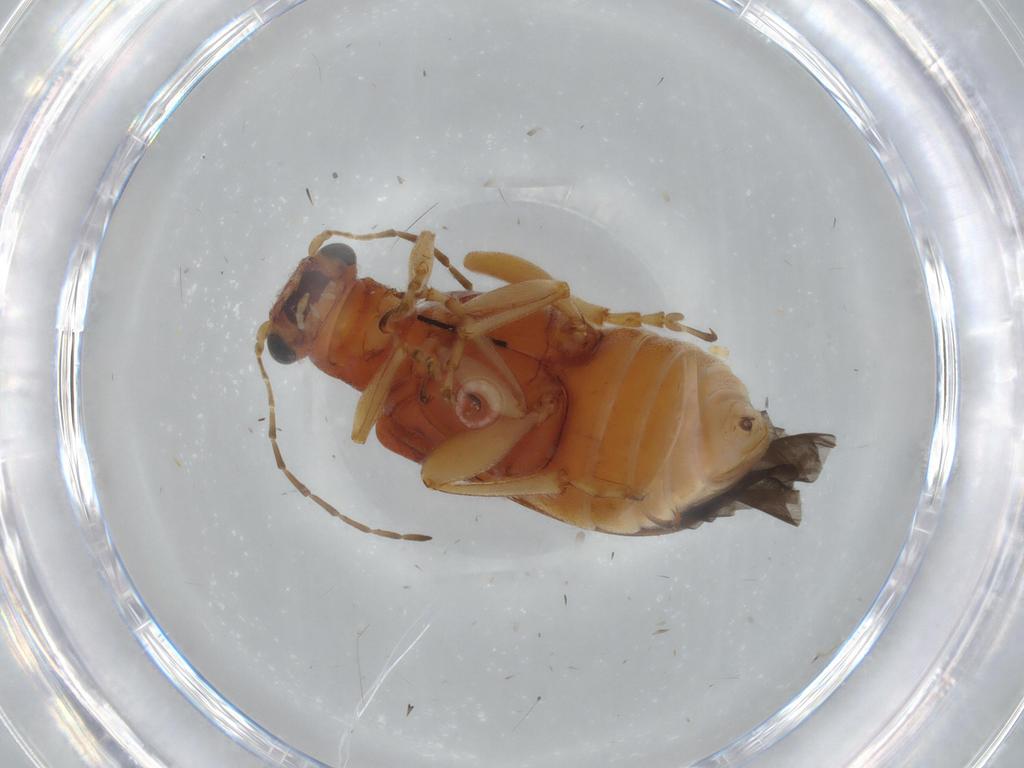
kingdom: Animalia
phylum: Arthropoda
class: Insecta
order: Coleoptera
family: Chrysomelidae
